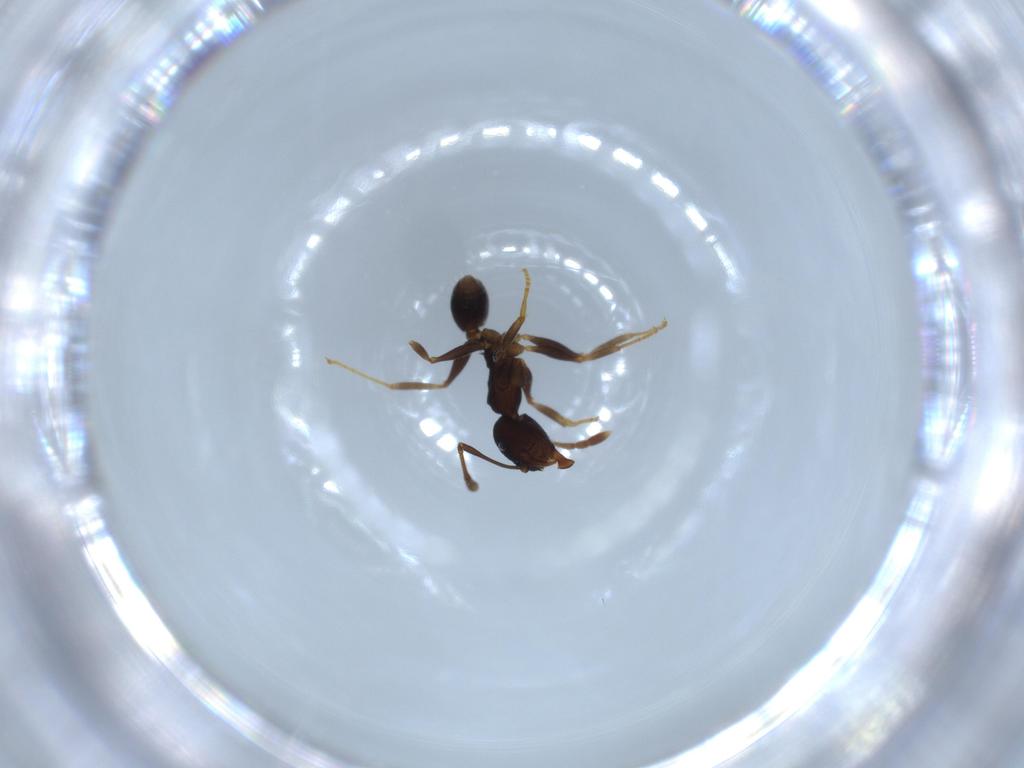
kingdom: Animalia
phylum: Arthropoda
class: Insecta
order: Hymenoptera
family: Formicidae
